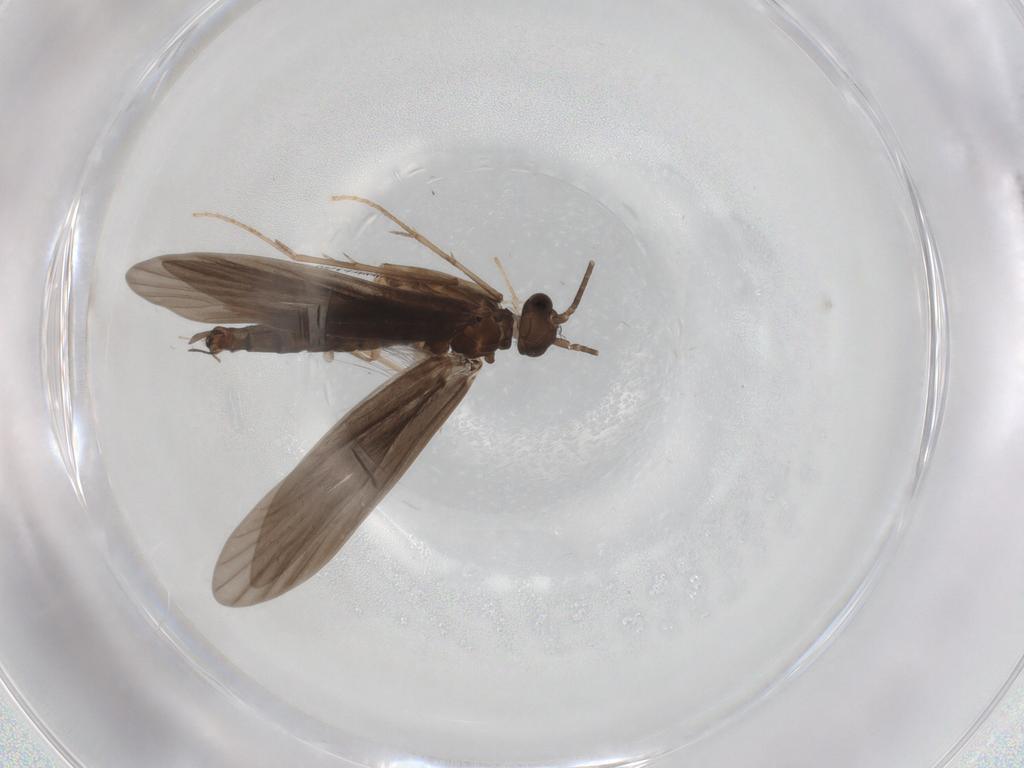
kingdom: Animalia
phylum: Arthropoda
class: Insecta
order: Trichoptera
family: Xiphocentronidae
